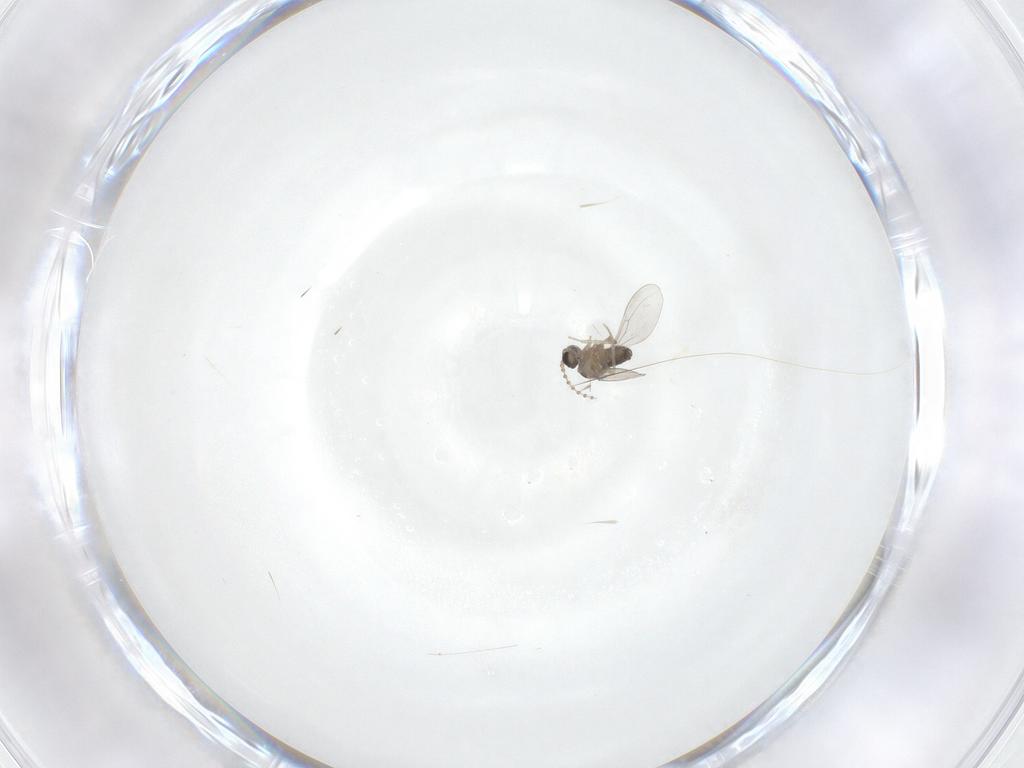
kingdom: Animalia
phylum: Arthropoda
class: Insecta
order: Diptera
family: Cecidomyiidae
